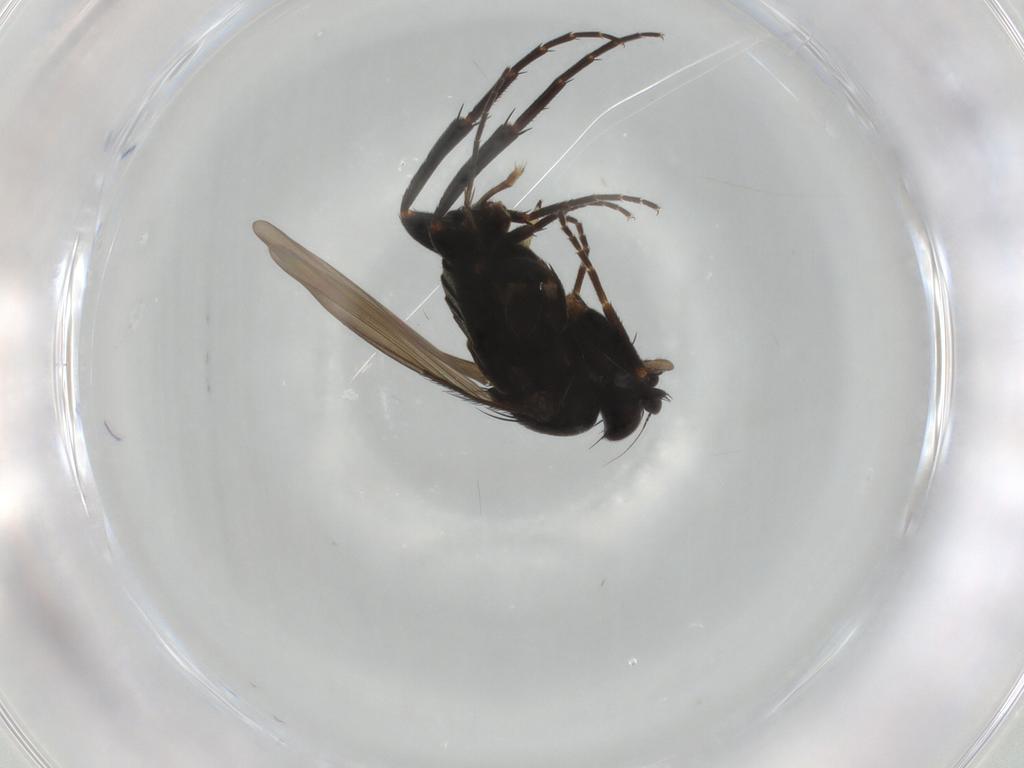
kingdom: Animalia
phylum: Arthropoda
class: Insecta
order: Diptera
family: Phoridae
